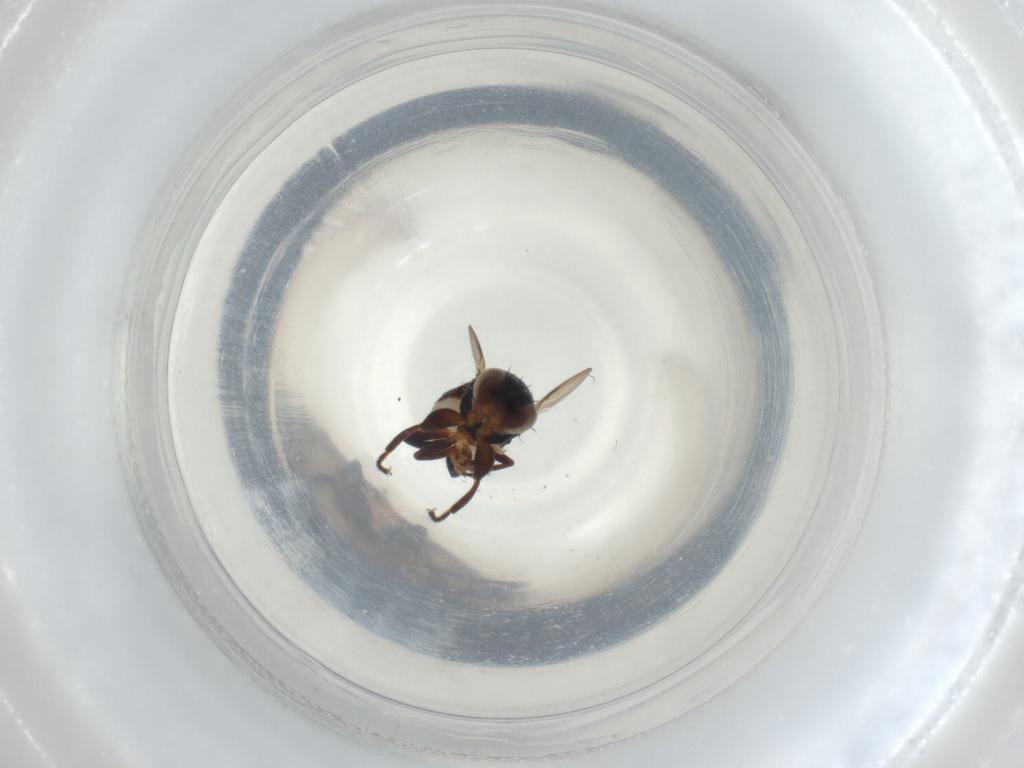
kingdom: Animalia
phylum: Arthropoda
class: Insecta
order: Diptera
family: Chloropidae
